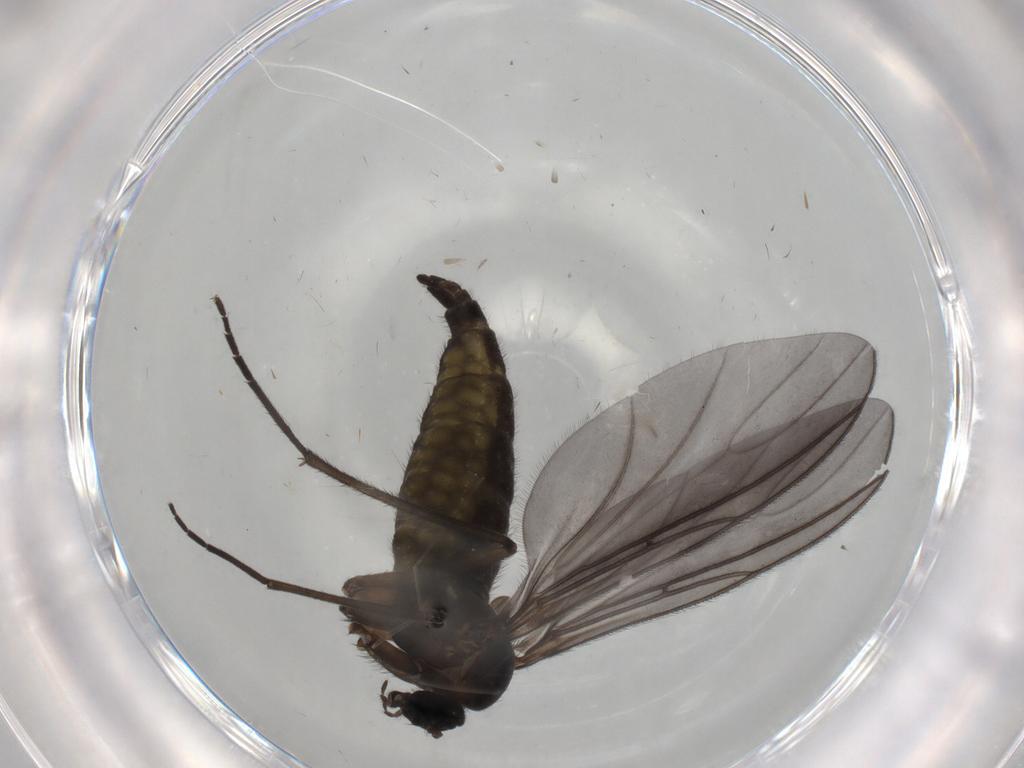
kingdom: Animalia
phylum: Arthropoda
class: Insecta
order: Diptera
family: Sciaridae
